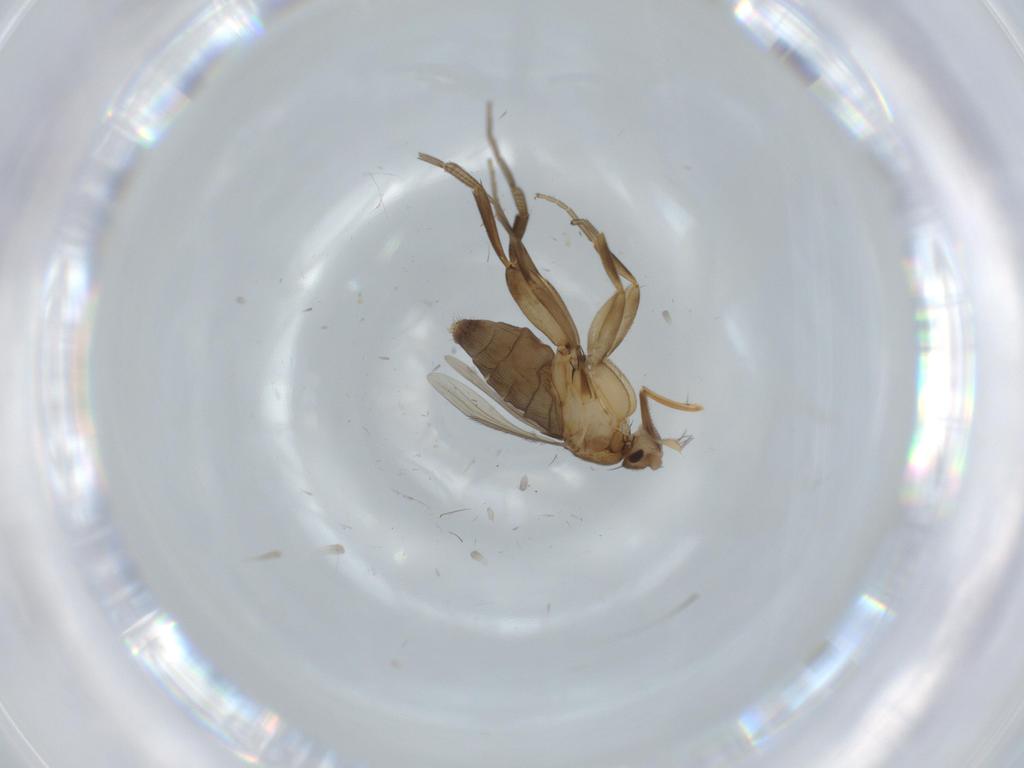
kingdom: Animalia
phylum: Arthropoda
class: Insecta
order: Diptera
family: Phoridae
